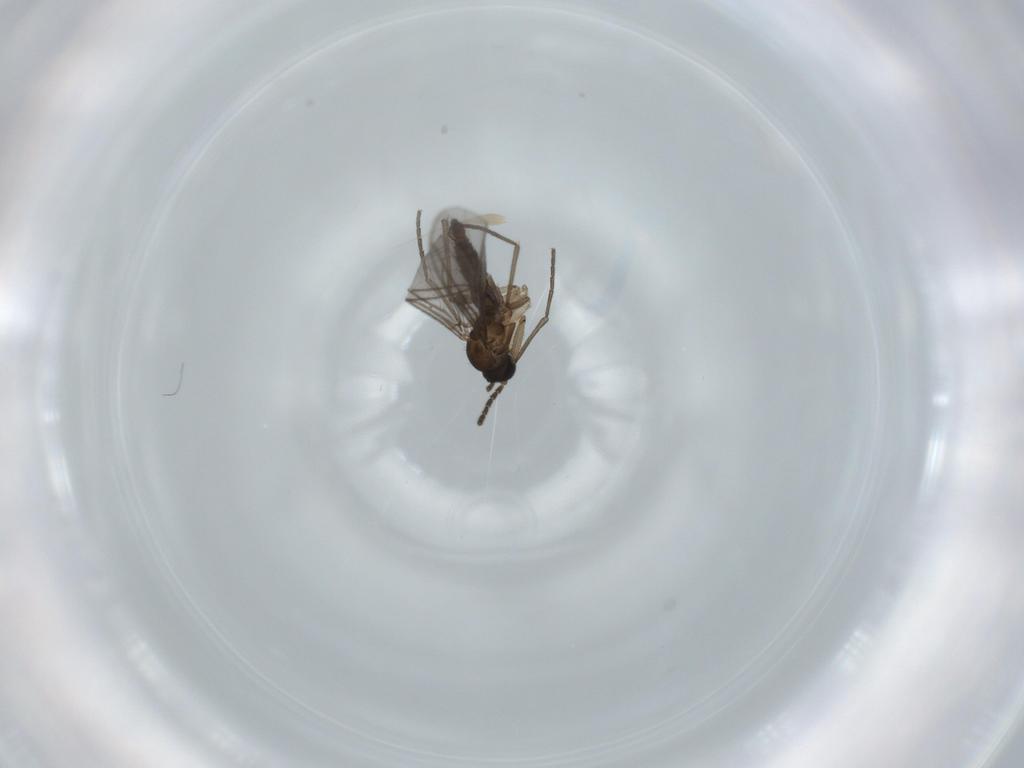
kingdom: Animalia
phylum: Arthropoda
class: Insecta
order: Diptera
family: Sciaridae
